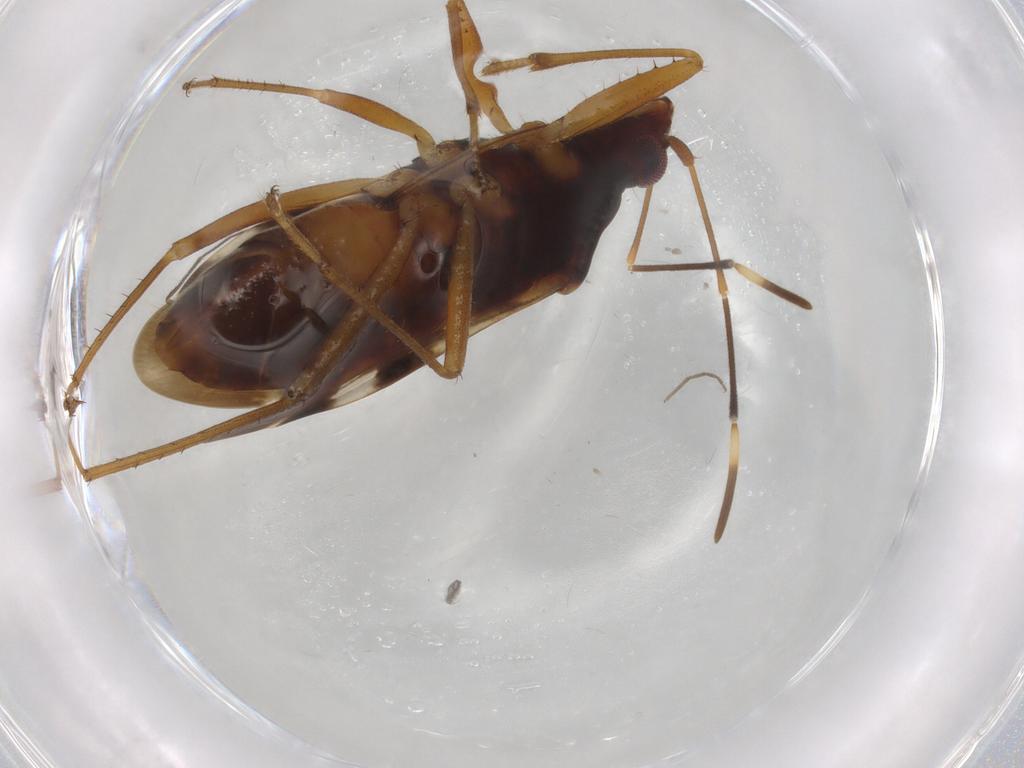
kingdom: Animalia
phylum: Arthropoda
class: Insecta
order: Hemiptera
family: Rhyparochromidae
